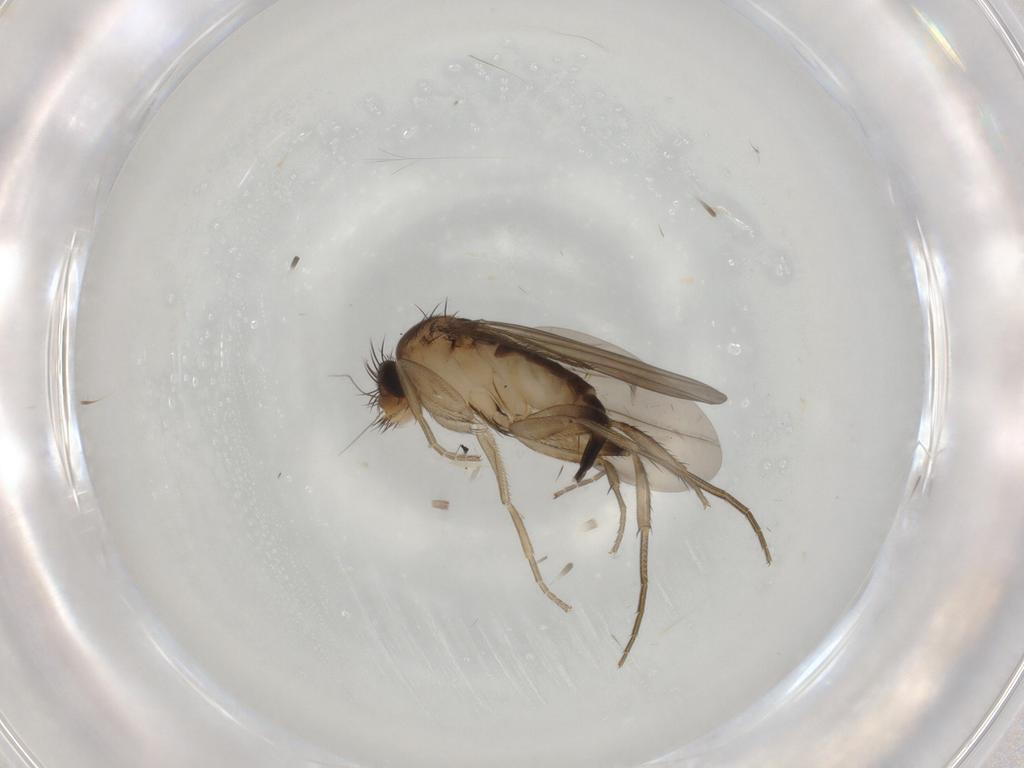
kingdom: Animalia
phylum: Arthropoda
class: Insecta
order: Diptera
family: Phoridae
